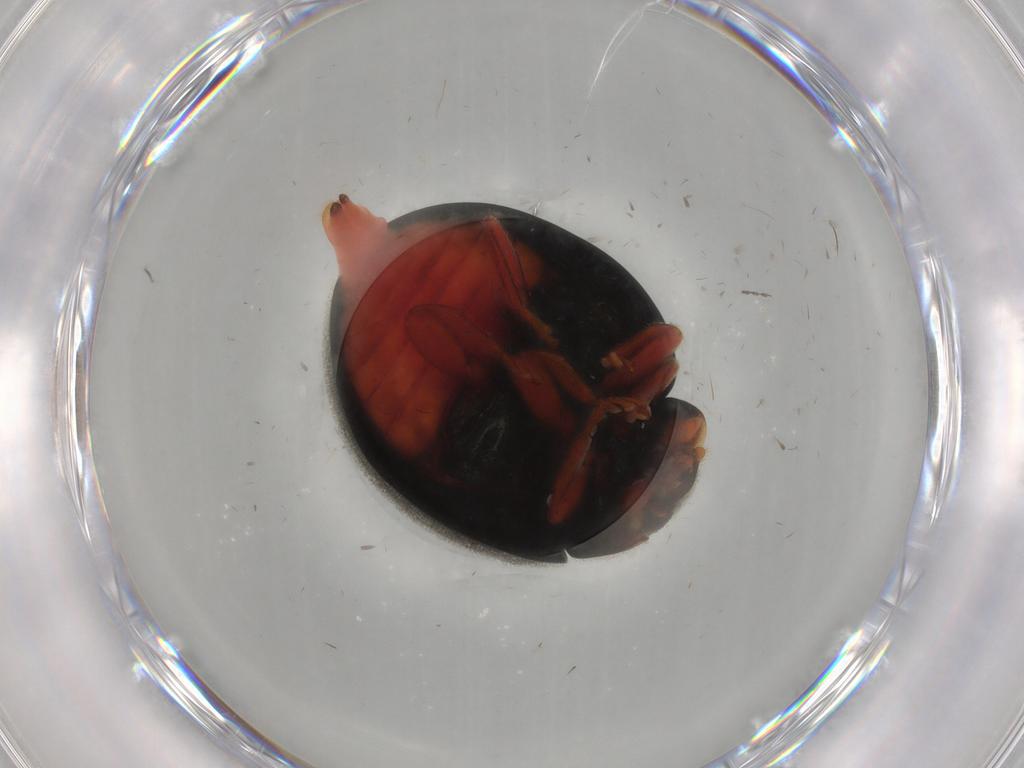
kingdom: Animalia
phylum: Arthropoda
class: Insecta
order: Coleoptera
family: Coccinellidae
